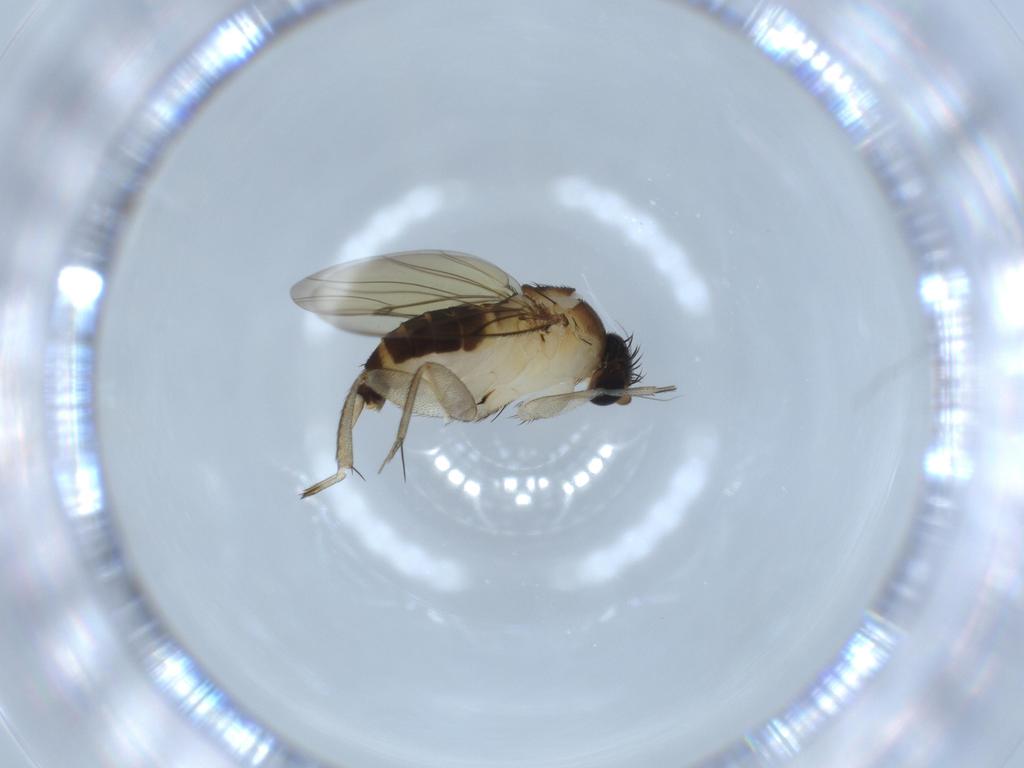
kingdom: Animalia
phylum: Arthropoda
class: Insecta
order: Diptera
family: Phoridae
